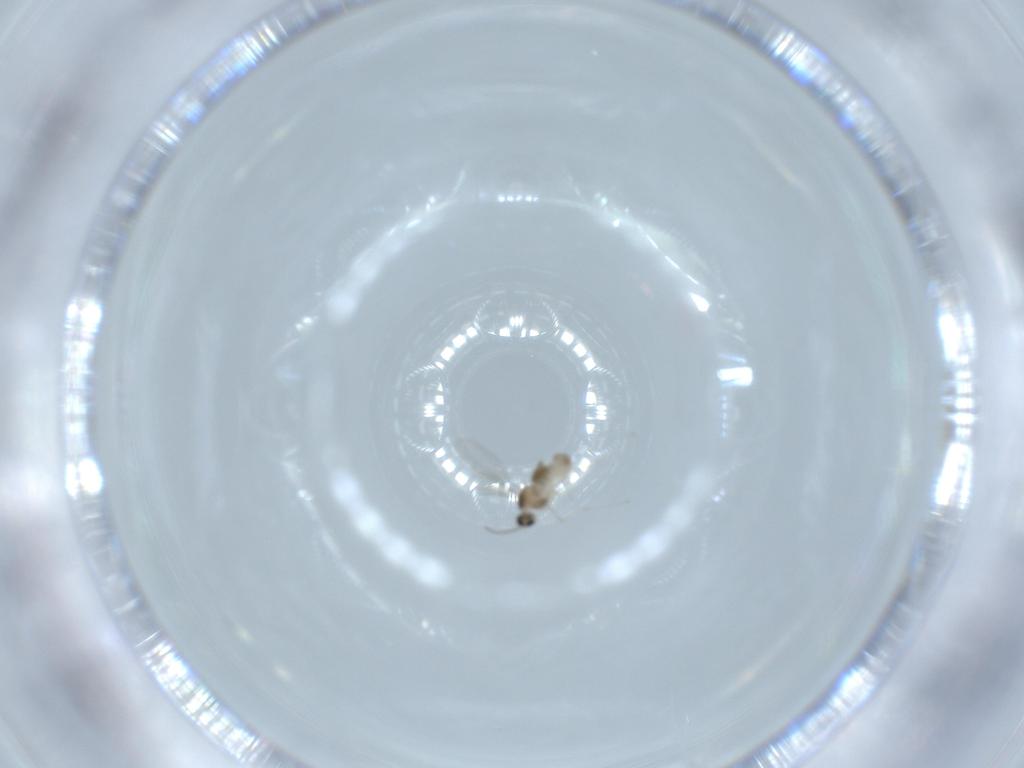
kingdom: Animalia
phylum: Arthropoda
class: Insecta
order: Diptera
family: Cecidomyiidae
